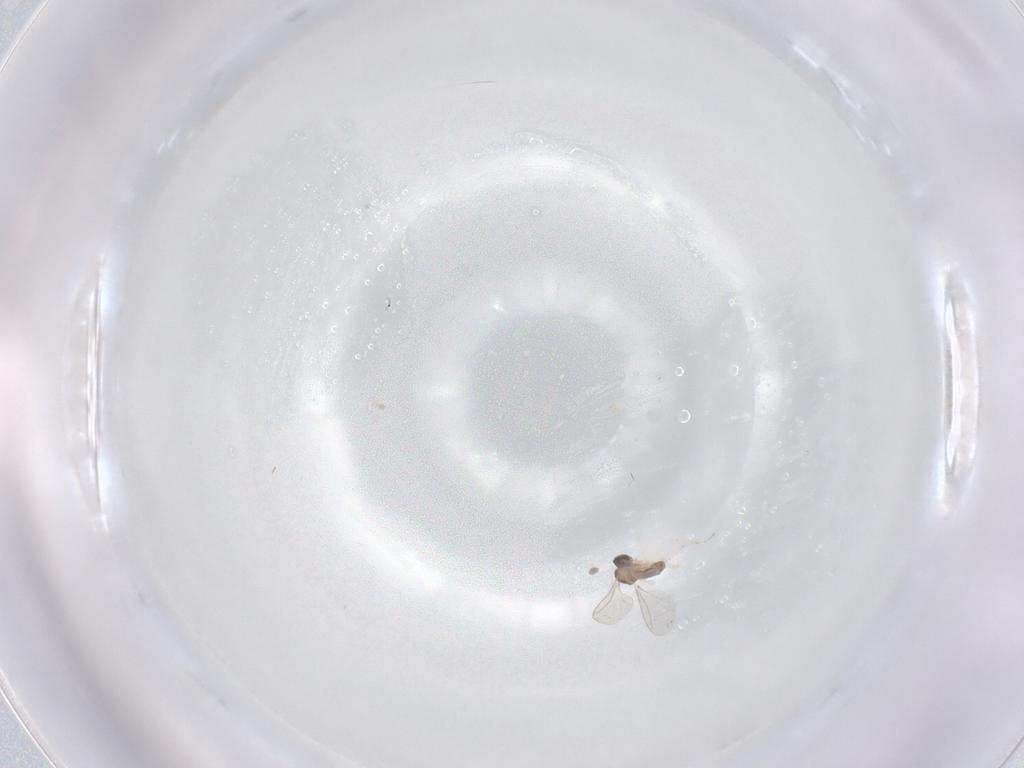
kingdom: Animalia
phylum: Arthropoda
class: Insecta
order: Diptera
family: Cecidomyiidae
